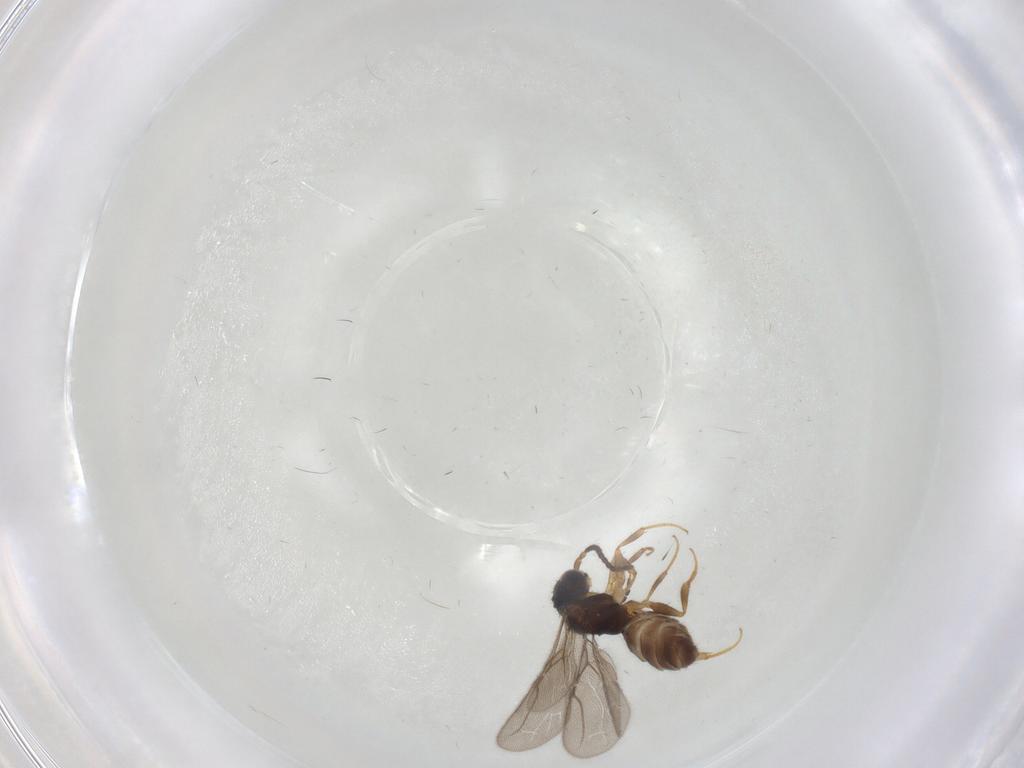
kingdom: Animalia
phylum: Arthropoda
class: Insecta
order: Hymenoptera
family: Bethylidae
